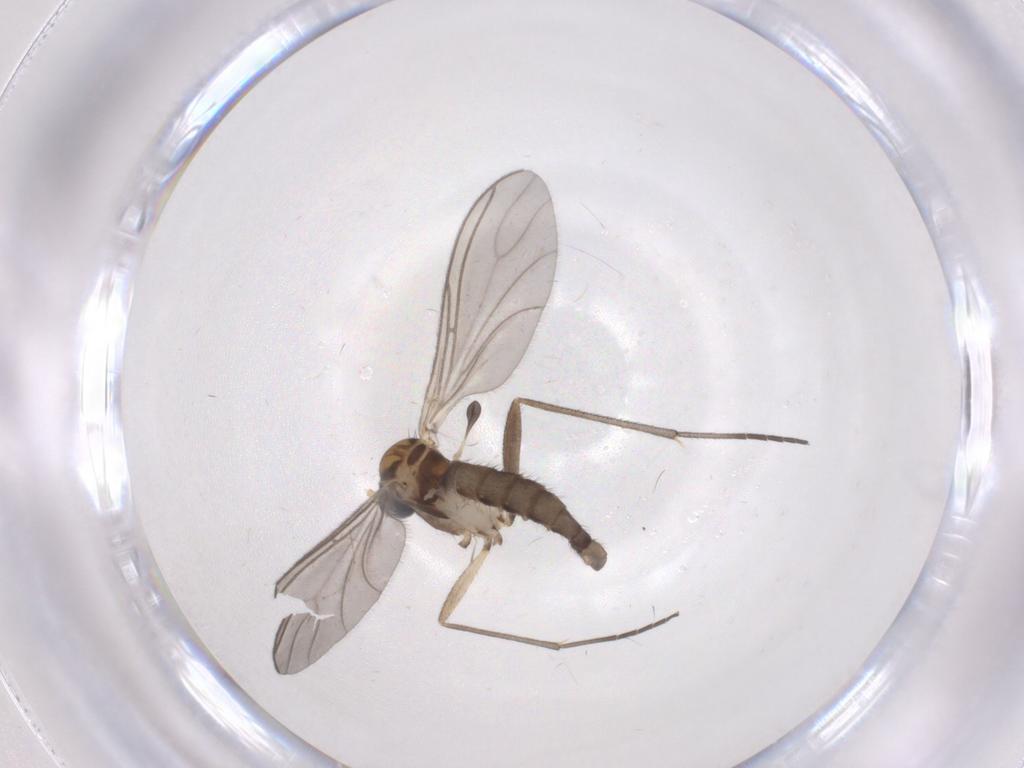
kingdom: Animalia
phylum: Arthropoda
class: Insecta
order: Diptera
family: Sciaridae
